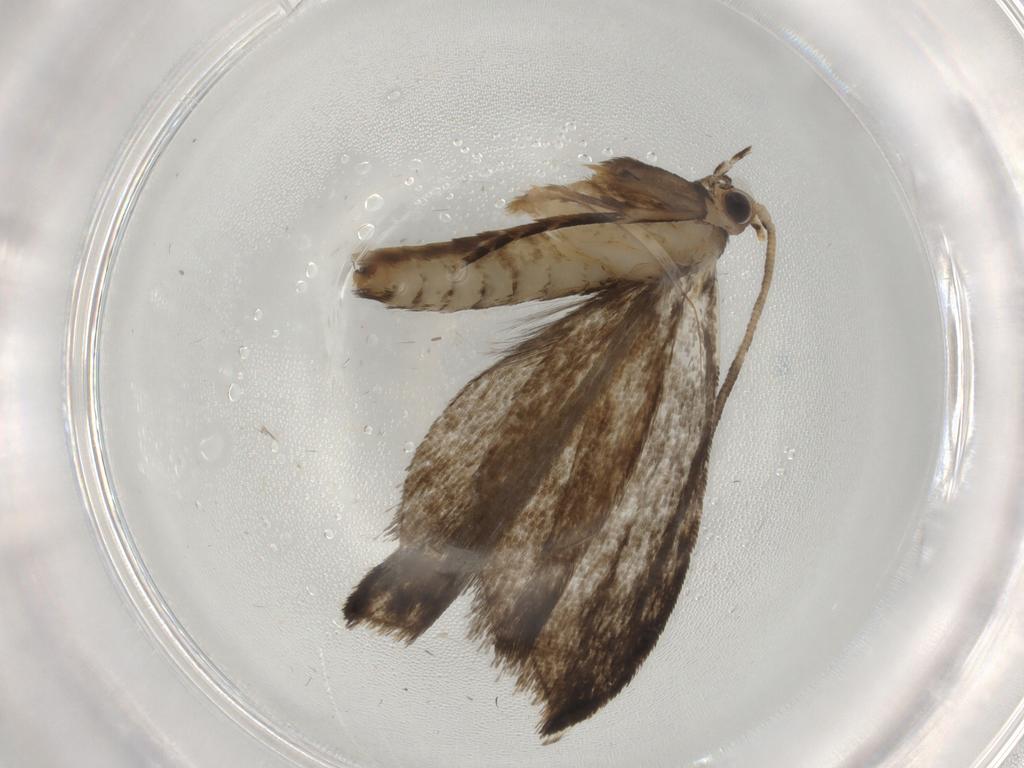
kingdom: Animalia
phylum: Arthropoda
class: Insecta
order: Lepidoptera
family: Tineidae
